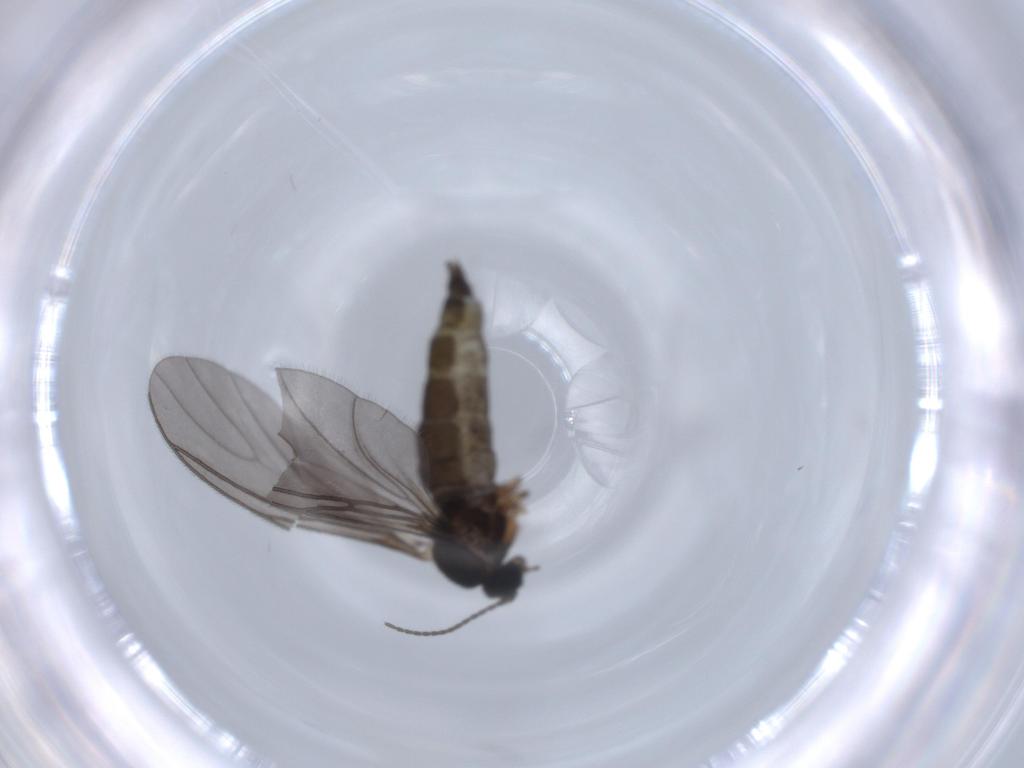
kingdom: Animalia
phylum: Arthropoda
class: Insecta
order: Diptera
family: Sciaridae
